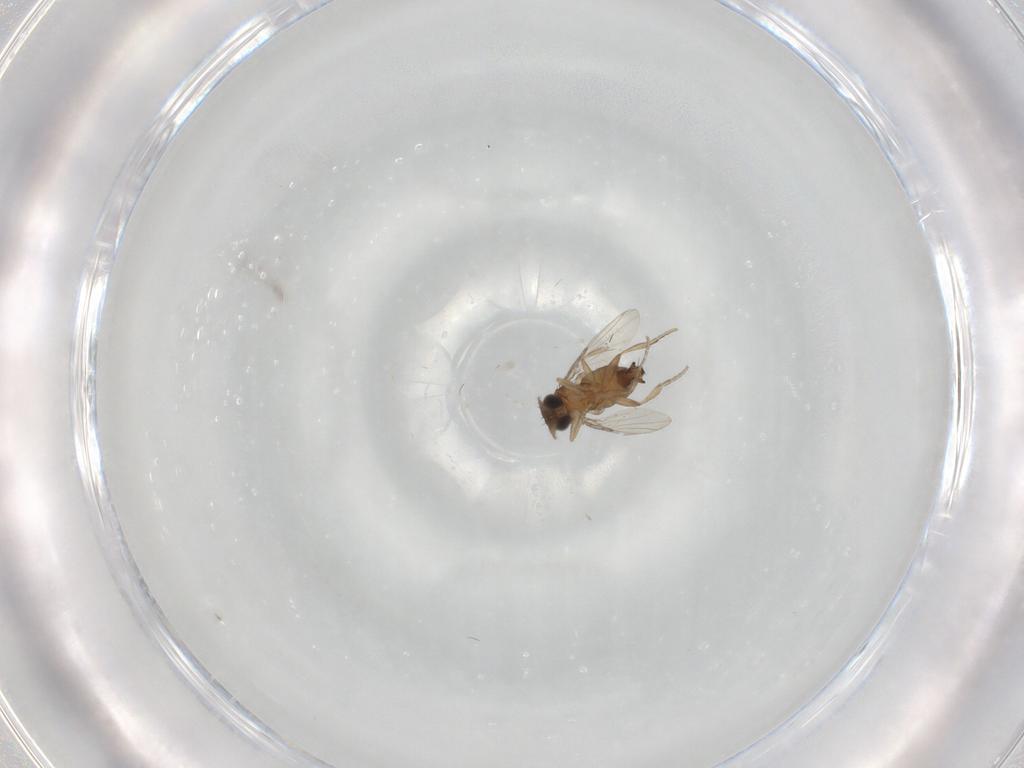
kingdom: Animalia
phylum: Arthropoda
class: Insecta
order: Diptera
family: Phoridae
